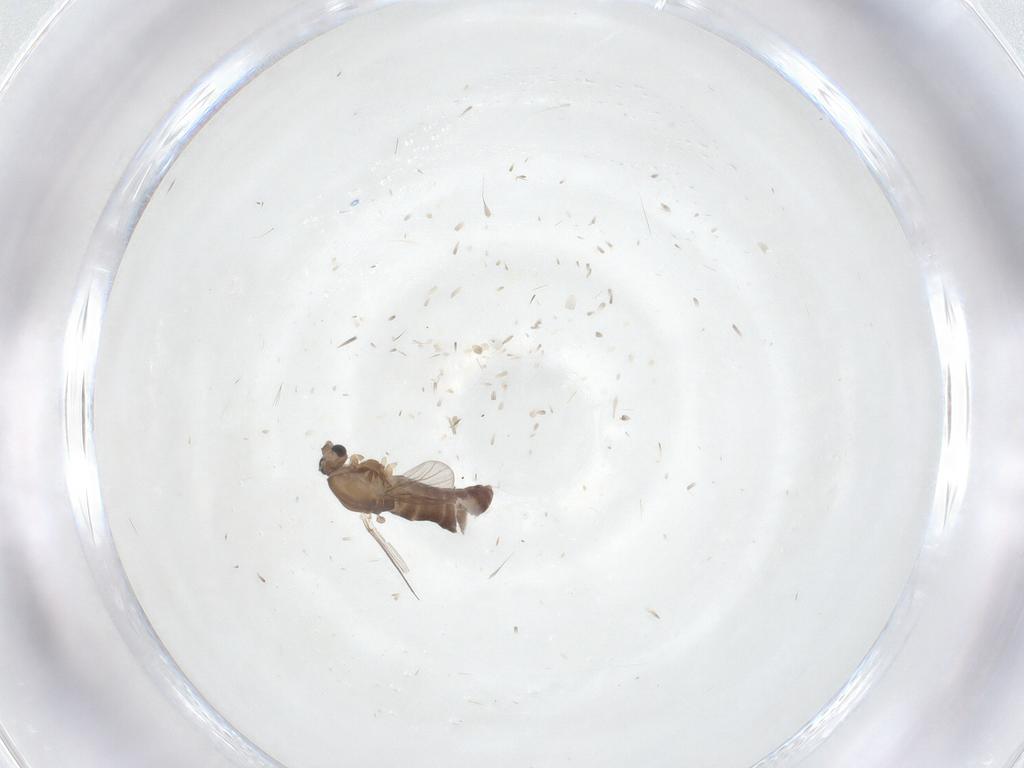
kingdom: Animalia
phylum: Arthropoda
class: Insecta
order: Diptera
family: Chironomidae
